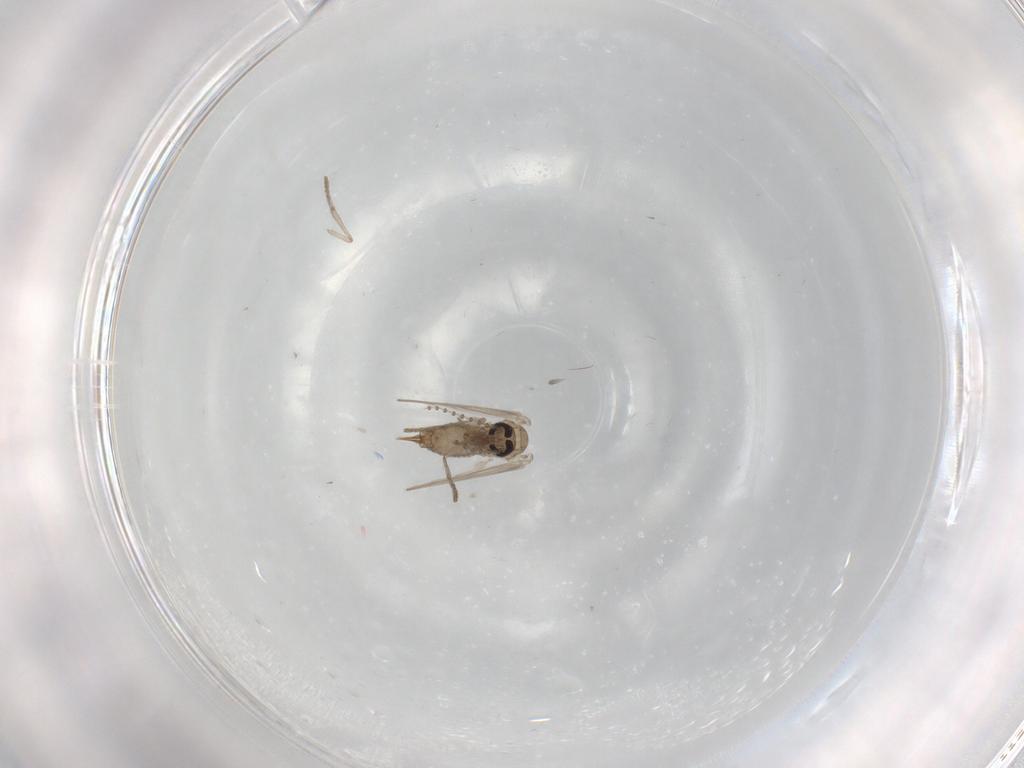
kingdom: Animalia
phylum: Arthropoda
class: Insecta
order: Diptera
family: Psychodidae
